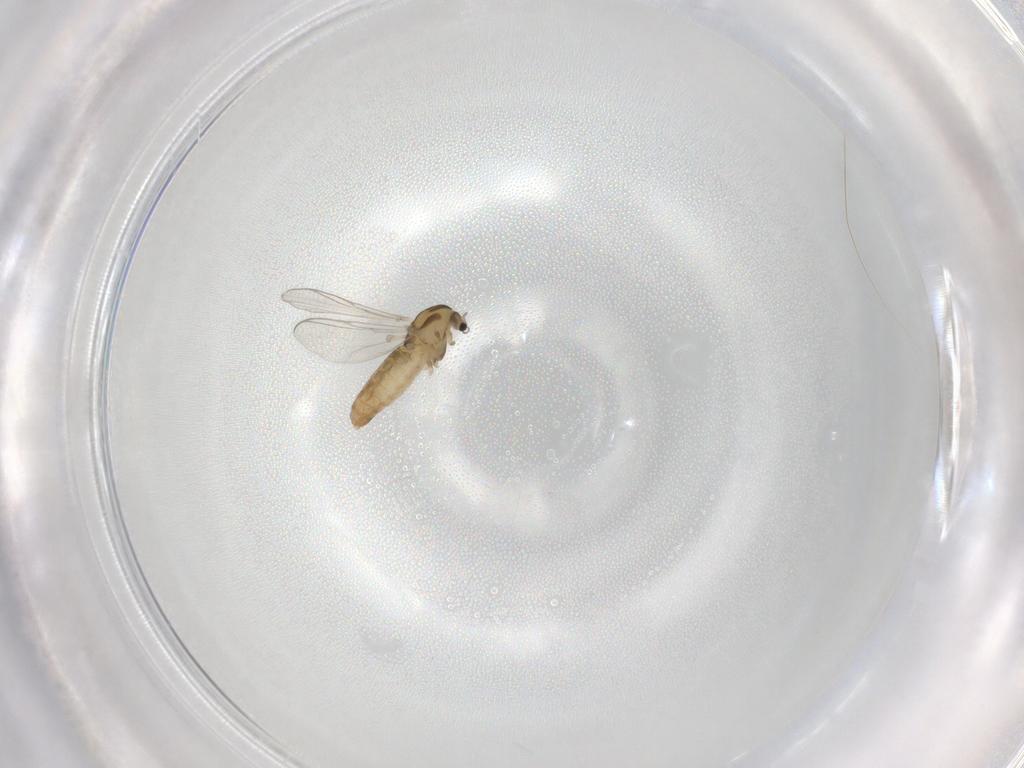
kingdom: Animalia
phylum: Arthropoda
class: Insecta
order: Diptera
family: Chironomidae
